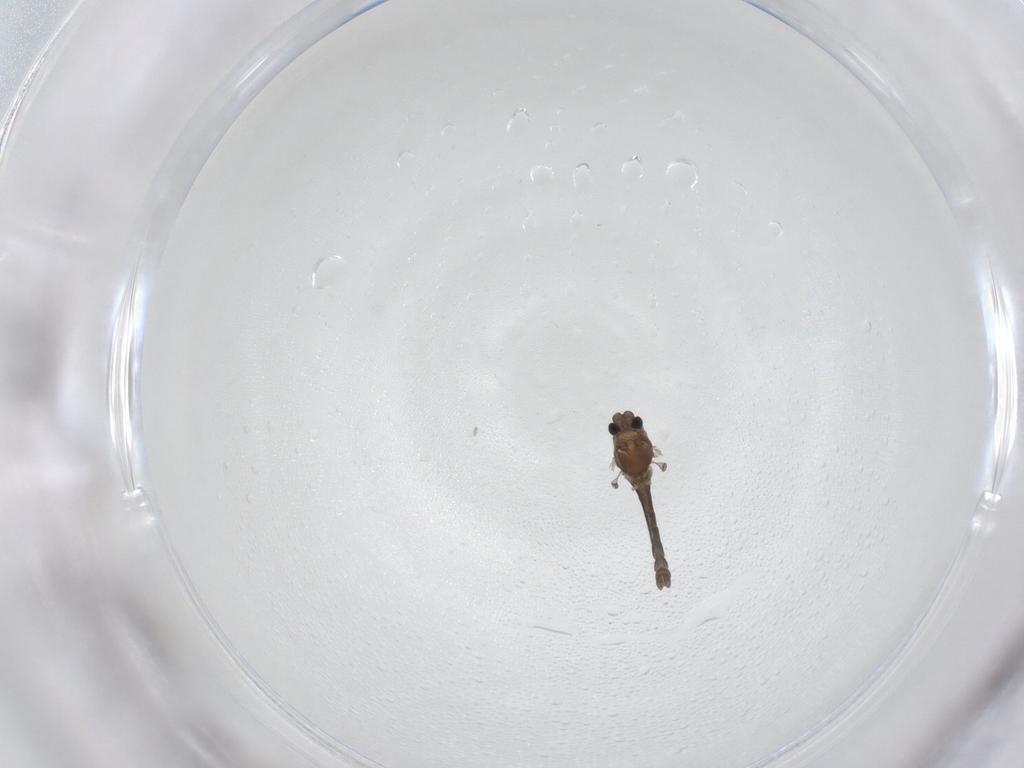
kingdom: Animalia
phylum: Arthropoda
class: Insecta
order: Diptera
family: Chironomidae
